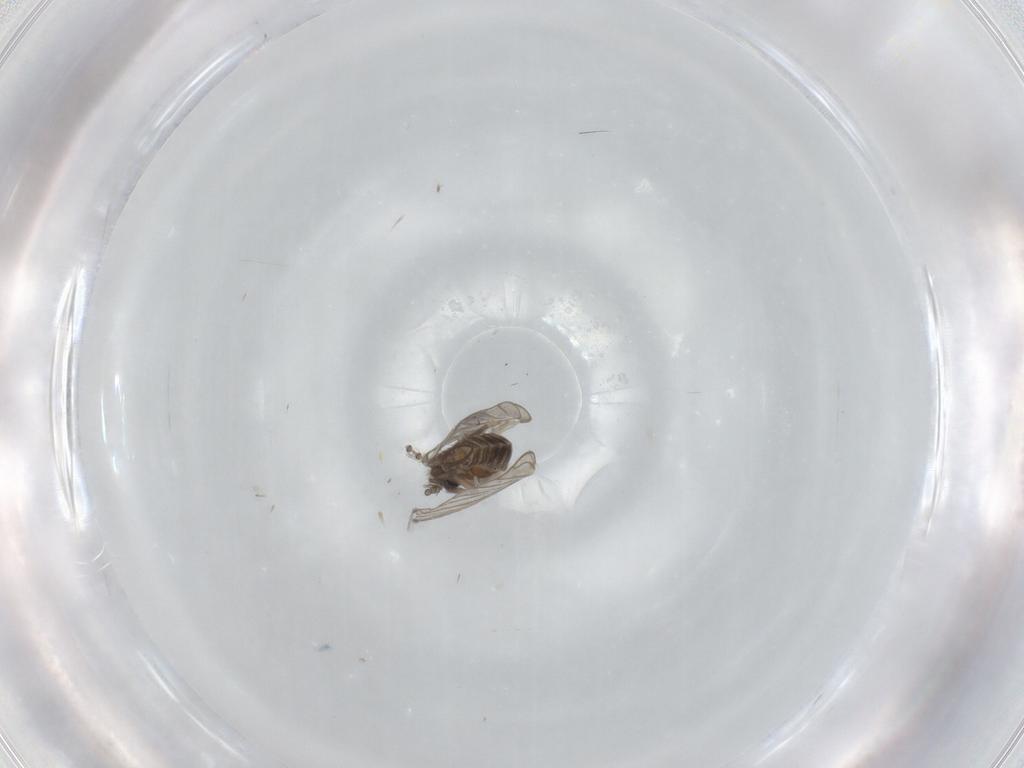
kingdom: Animalia
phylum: Arthropoda
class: Insecta
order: Diptera
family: Psychodidae
